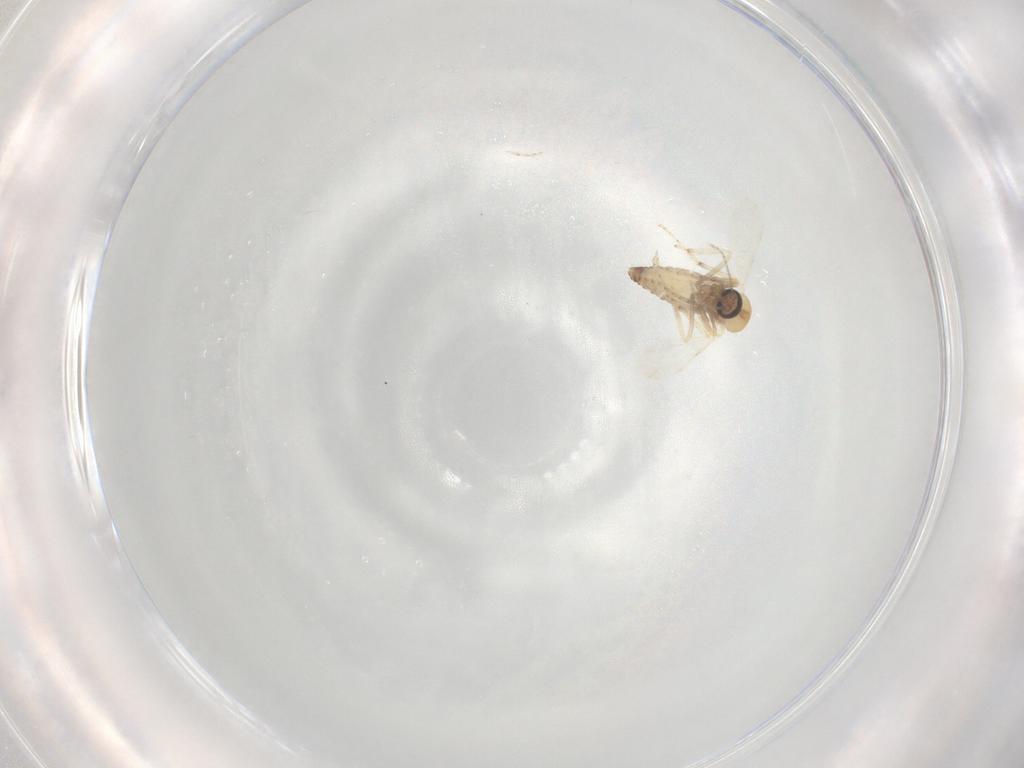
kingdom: Animalia
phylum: Arthropoda
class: Insecta
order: Diptera
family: Ceratopogonidae
